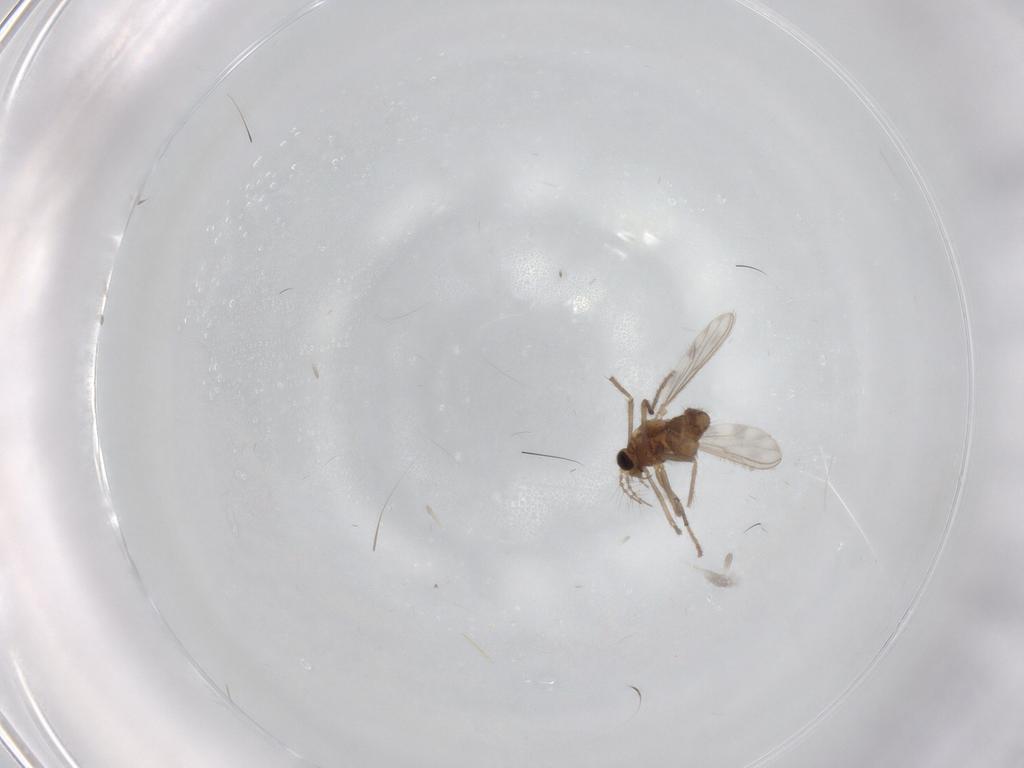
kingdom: Animalia
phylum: Arthropoda
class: Insecta
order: Diptera
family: Chironomidae
